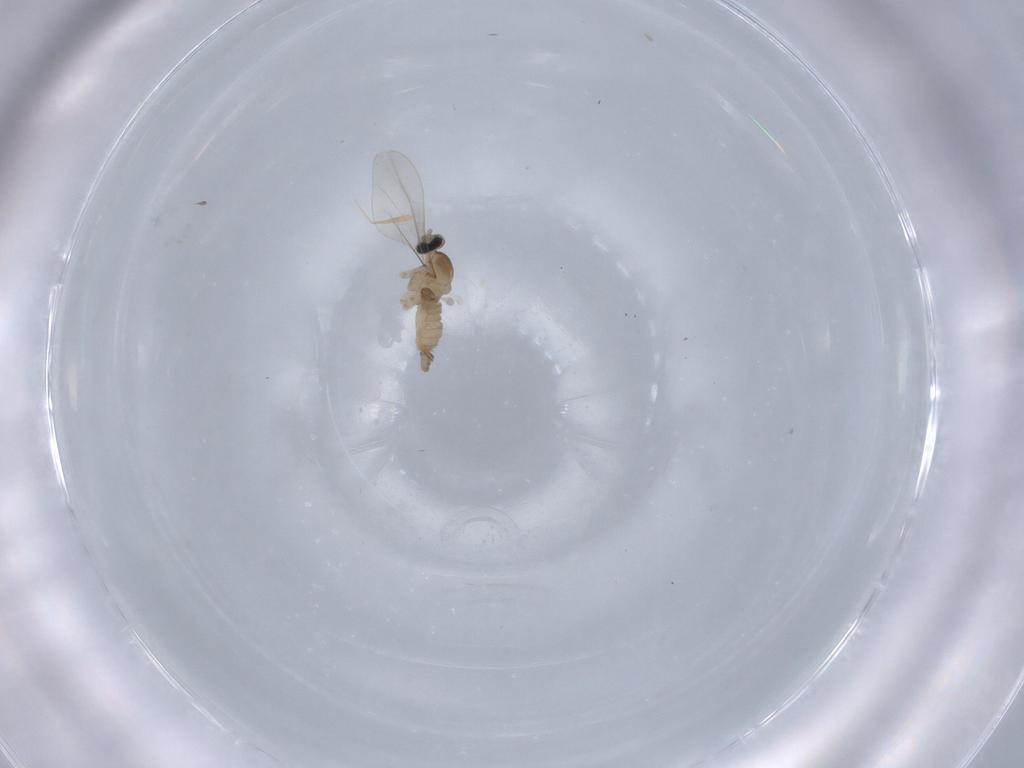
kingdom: Animalia
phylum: Arthropoda
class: Insecta
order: Diptera
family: Cecidomyiidae
